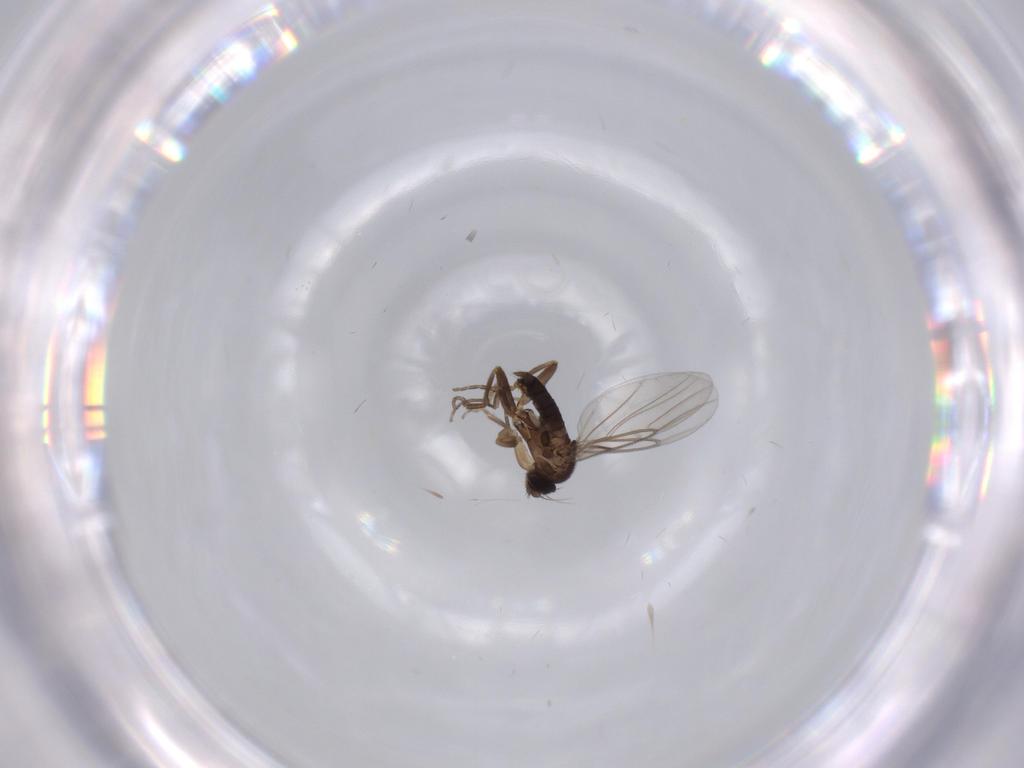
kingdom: Animalia
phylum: Arthropoda
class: Insecta
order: Diptera
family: Phoridae
